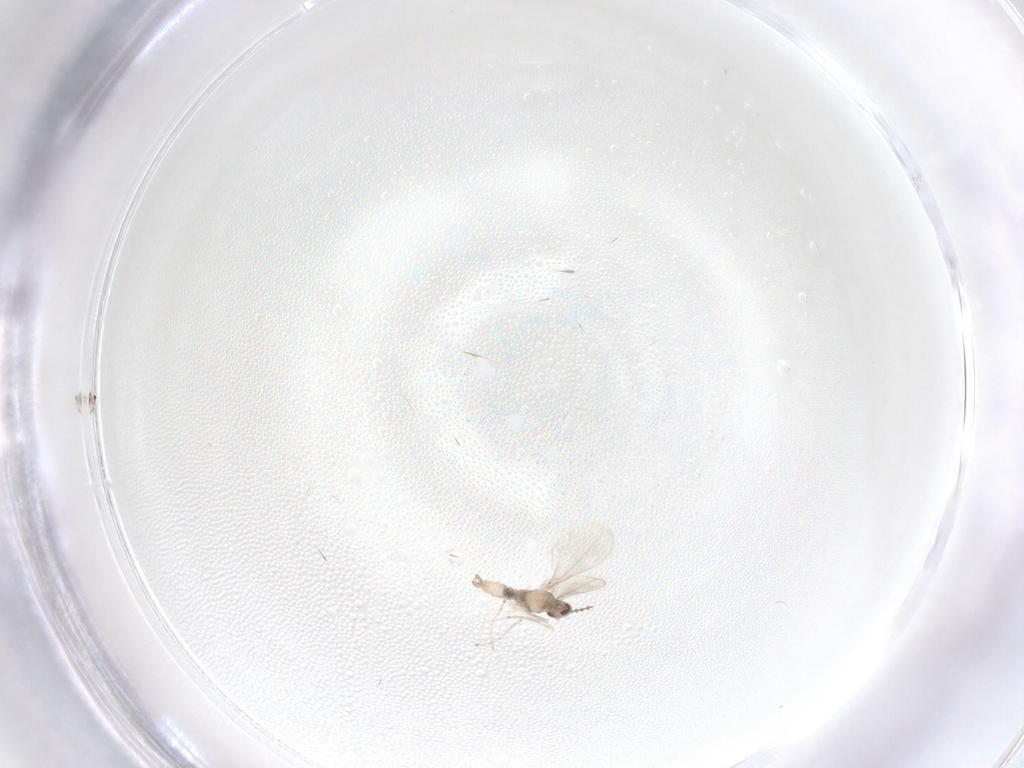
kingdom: Animalia
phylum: Arthropoda
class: Insecta
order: Diptera
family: Cecidomyiidae
